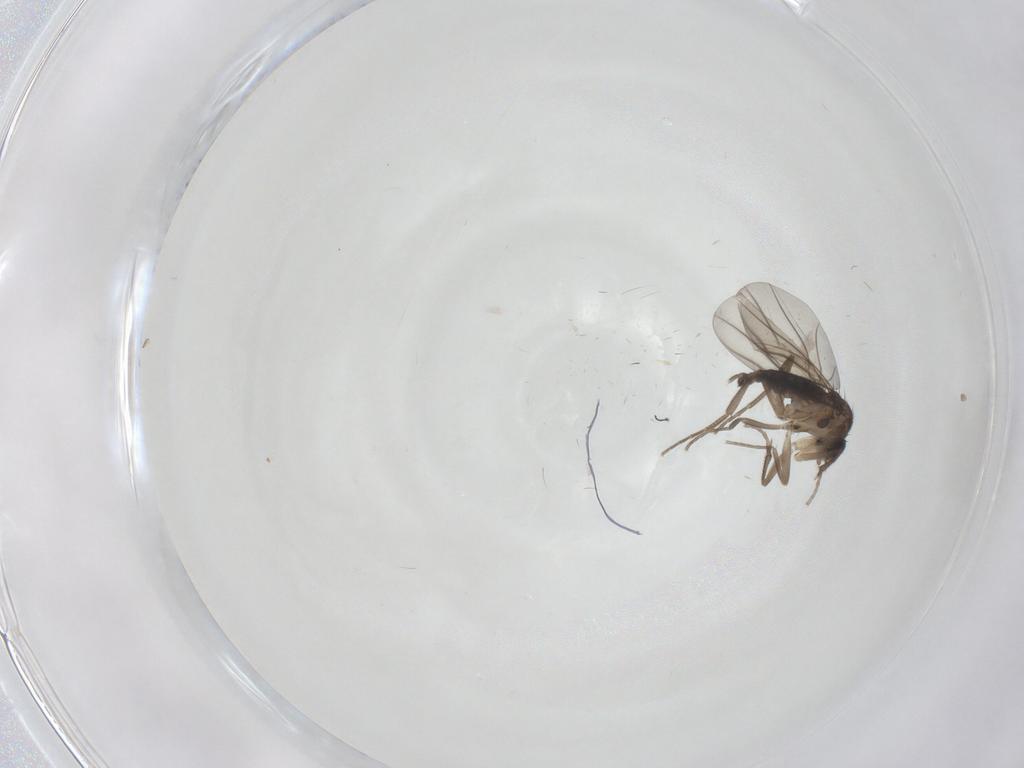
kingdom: Animalia
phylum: Arthropoda
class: Insecta
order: Diptera
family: Phoridae
